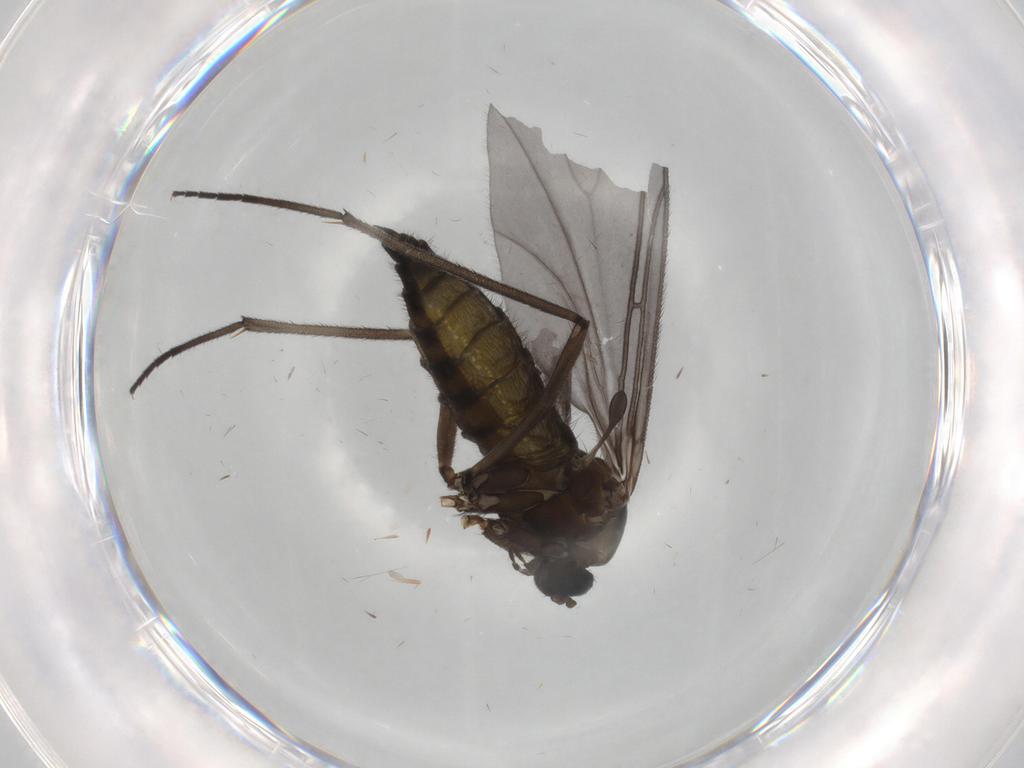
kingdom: Animalia
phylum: Arthropoda
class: Insecta
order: Diptera
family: Sciaridae
